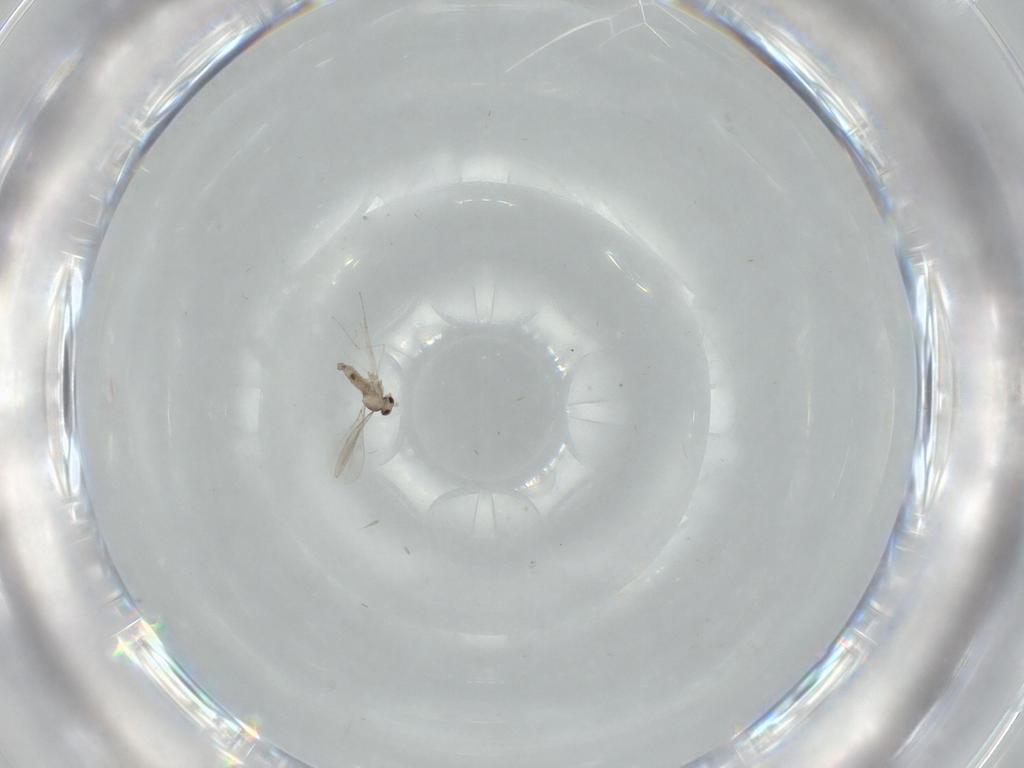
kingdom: Animalia
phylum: Arthropoda
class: Insecta
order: Diptera
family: Cecidomyiidae
